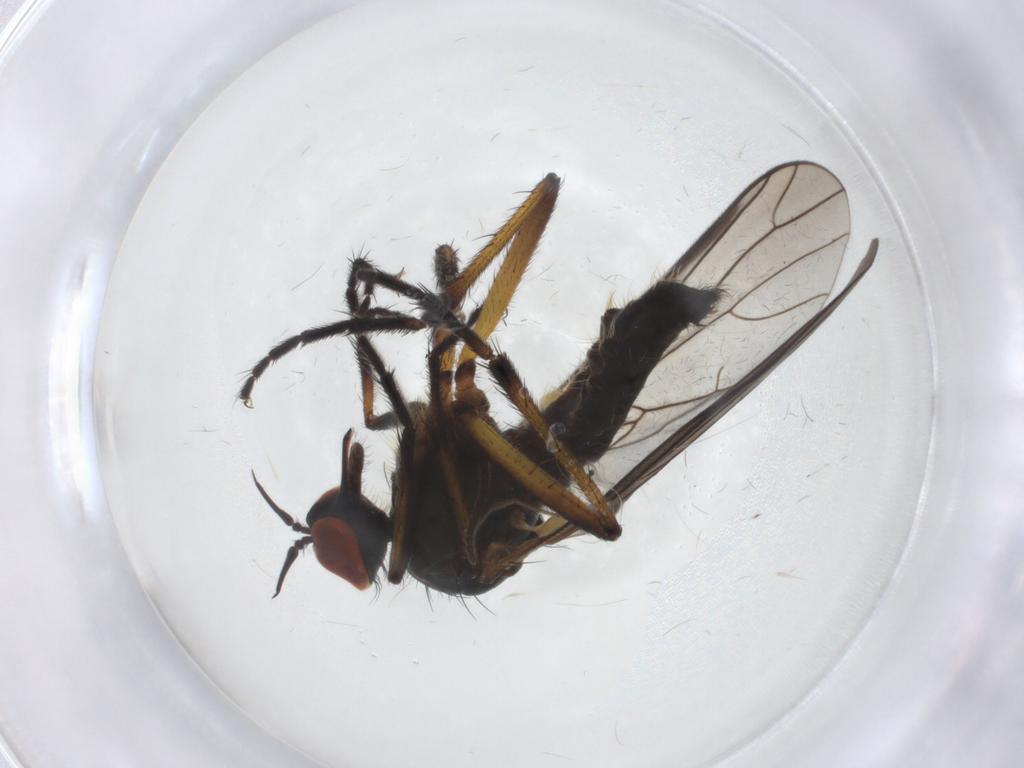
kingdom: Animalia
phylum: Arthropoda
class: Insecta
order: Diptera
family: Empididae
